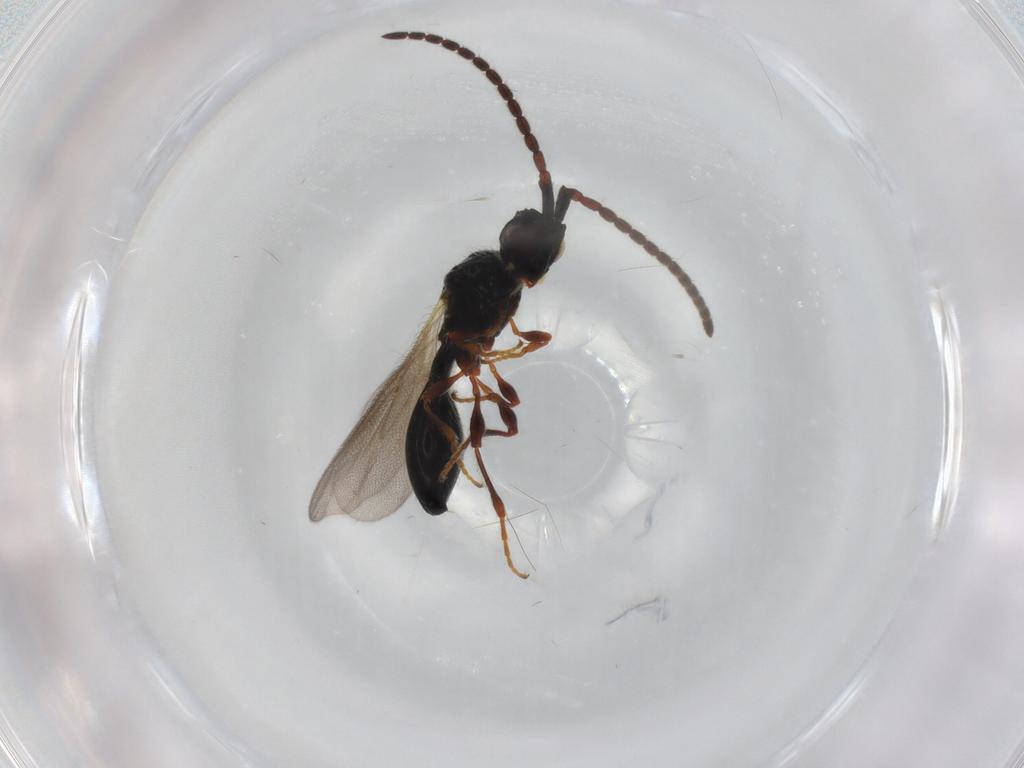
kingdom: Animalia
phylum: Arthropoda
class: Insecta
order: Hymenoptera
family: Diapriidae
